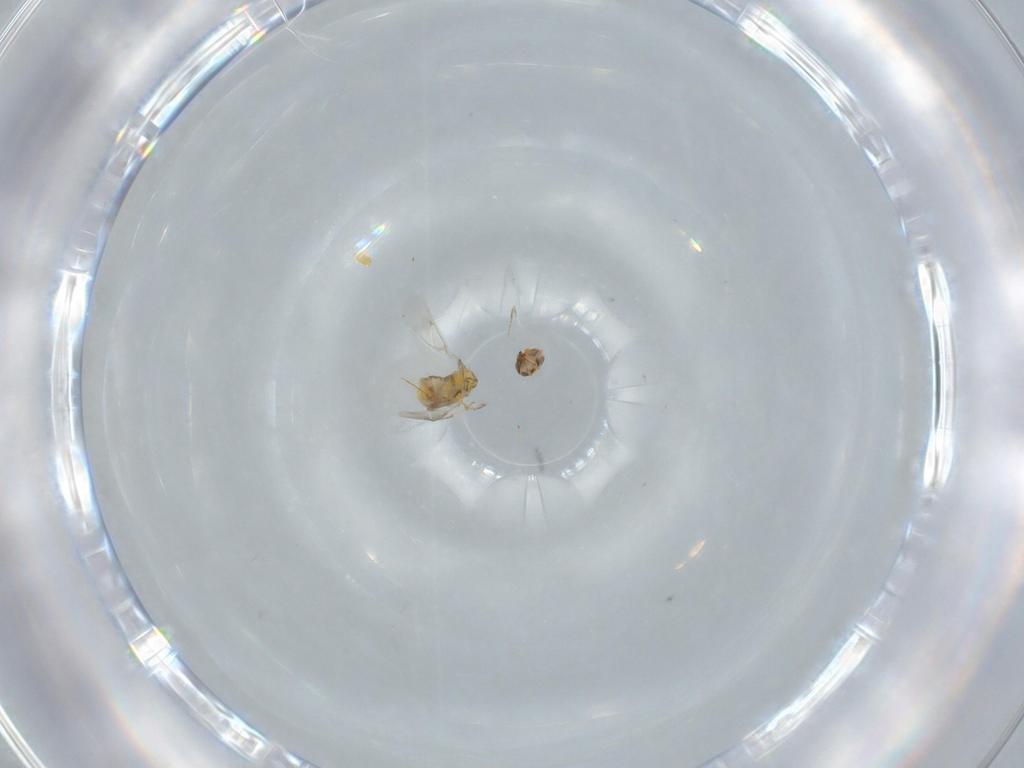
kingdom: Animalia
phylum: Arthropoda
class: Insecta
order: Hymenoptera
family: Aphelinidae
